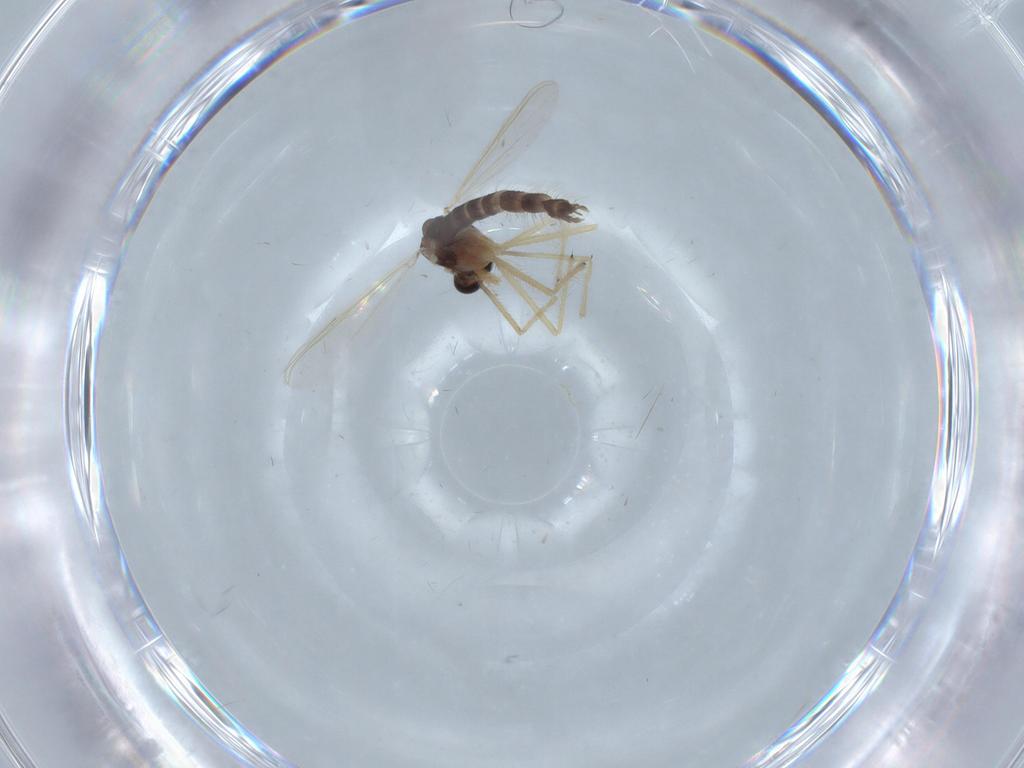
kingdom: Animalia
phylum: Arthropoda
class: Insecta
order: Diptera
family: Chironomidae
